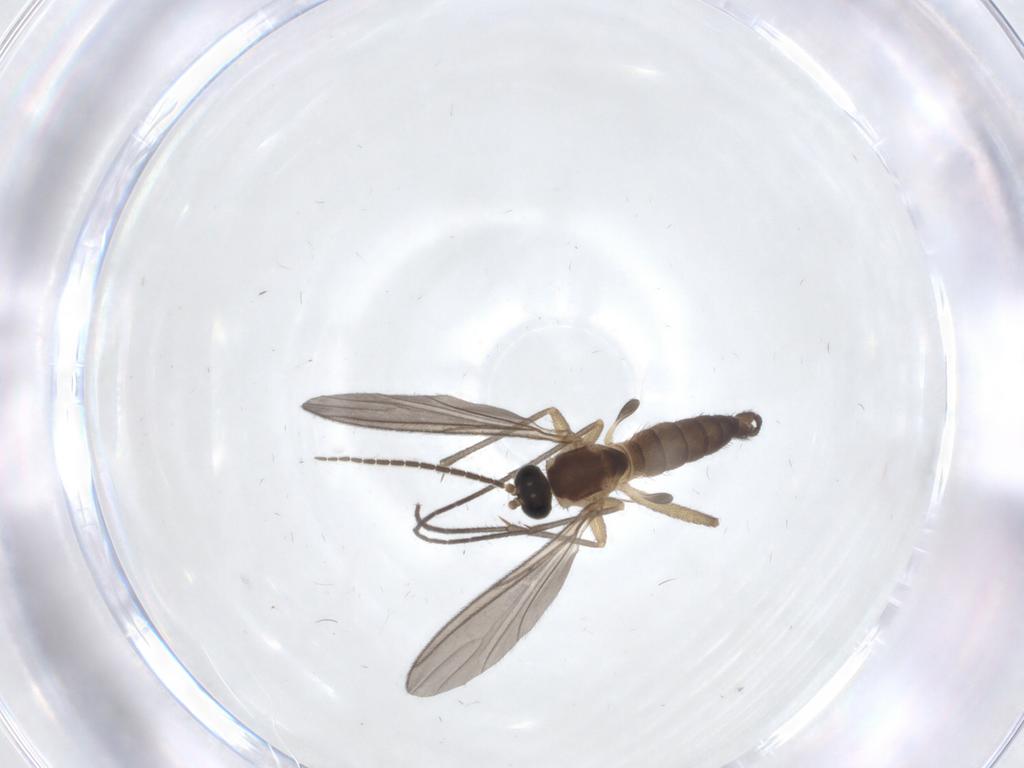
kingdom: Animalia
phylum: Arthropoda
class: Insecta
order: Diptera
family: Sciaridae
